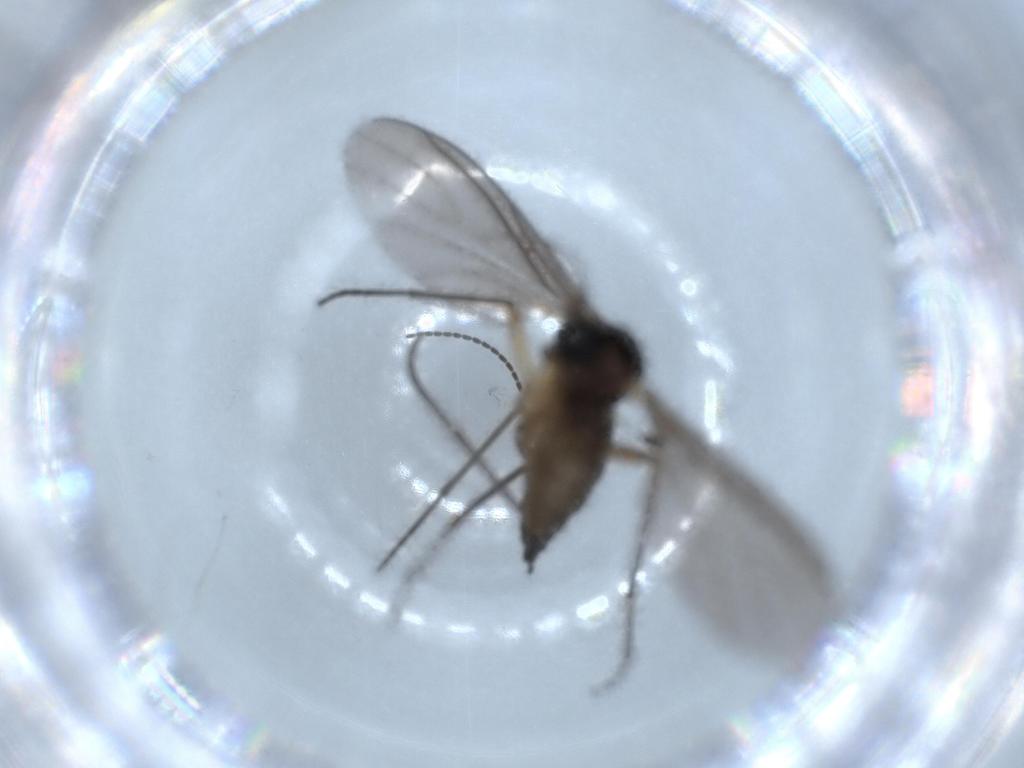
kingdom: Animalia
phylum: Arthropoda
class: Insecta
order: Diptera
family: Sciaridae
